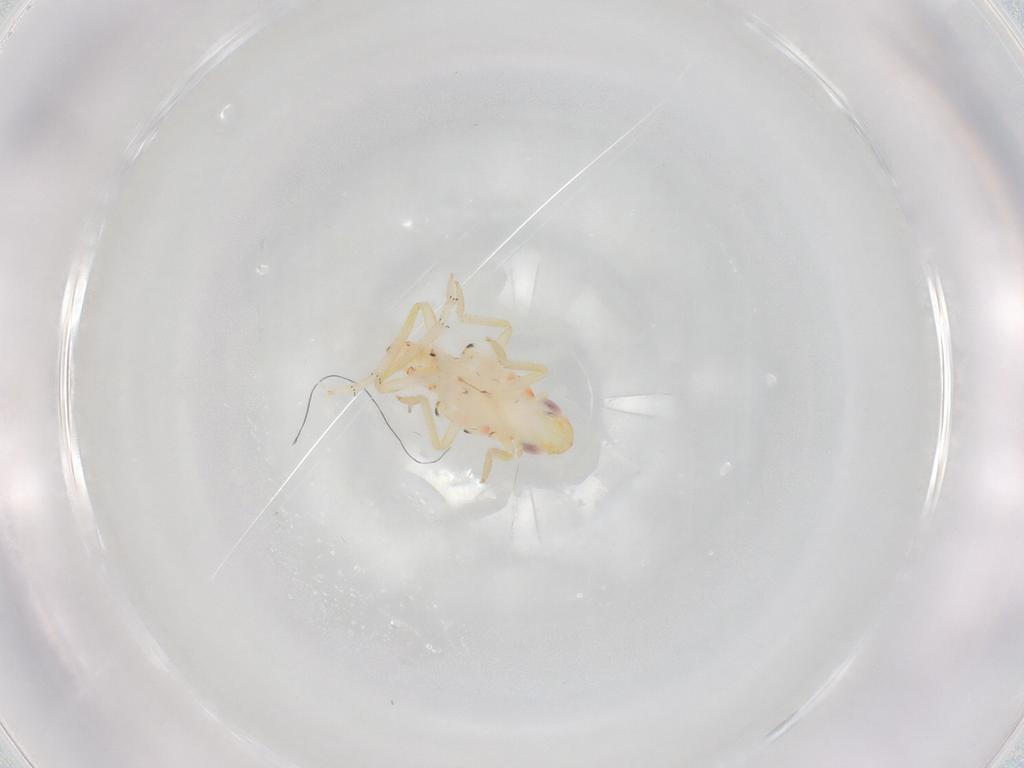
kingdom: Animalia
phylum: Arthropoda
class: Insecta
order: Hemiptera
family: Tropiduchidae
